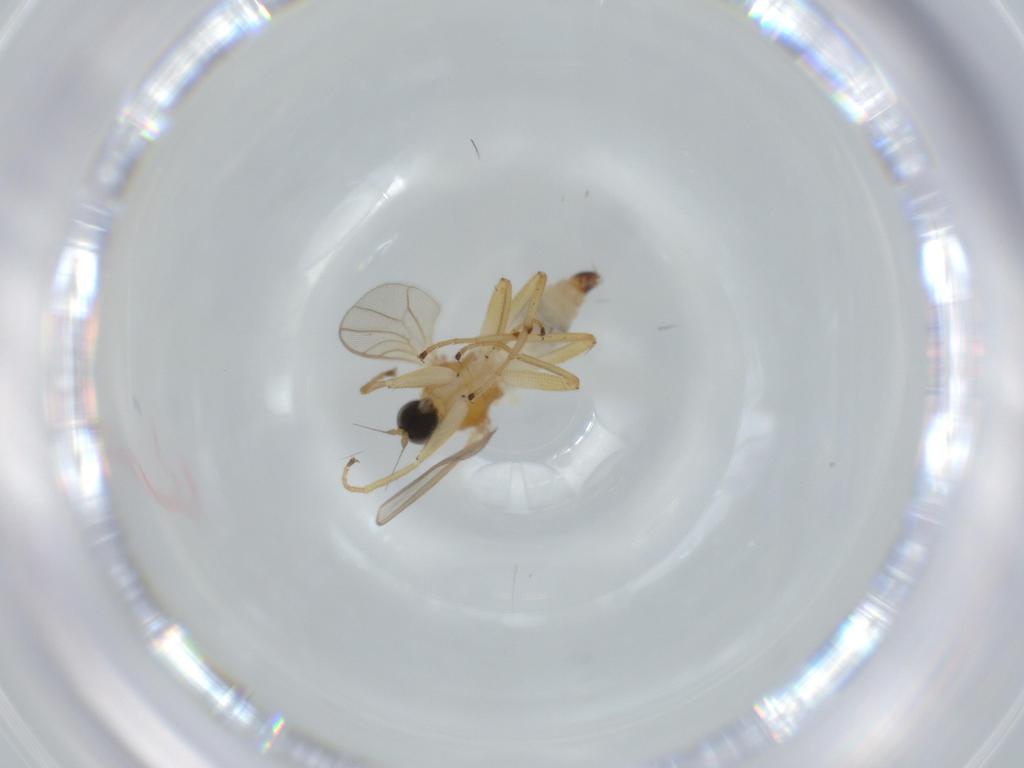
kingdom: Animalia
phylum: Arthropoda
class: Insecta
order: Diptera
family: Hybotidae
